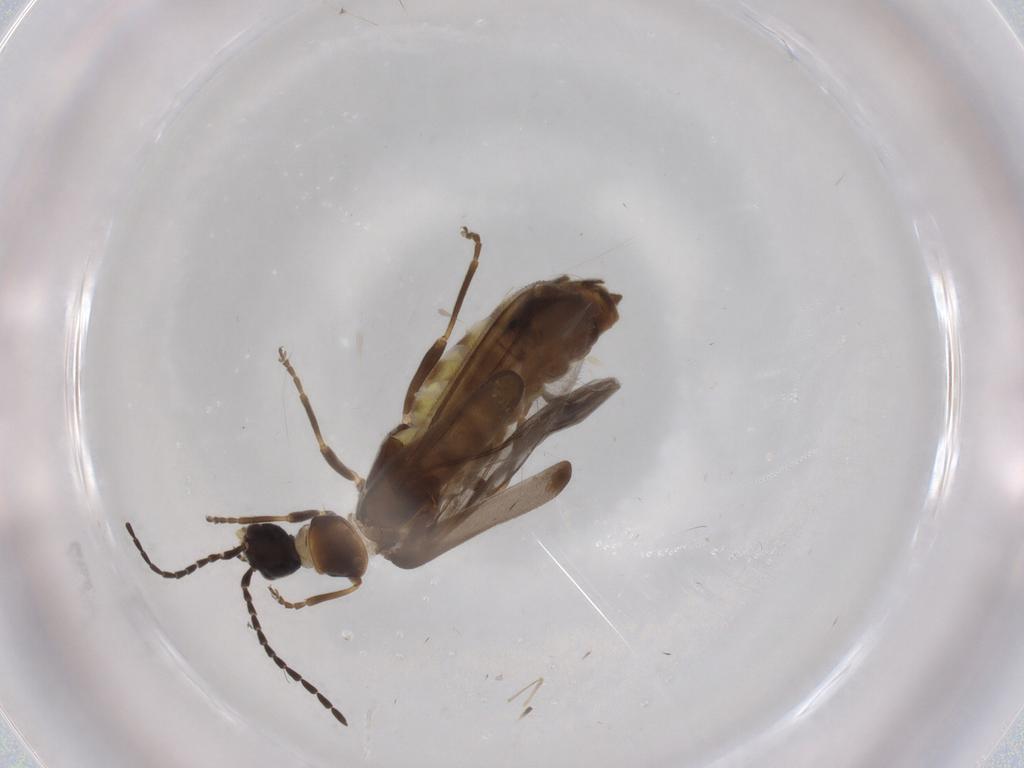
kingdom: Animalia
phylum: Arthropoda
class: Insecta
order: Coleoptera
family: Cantharidae
